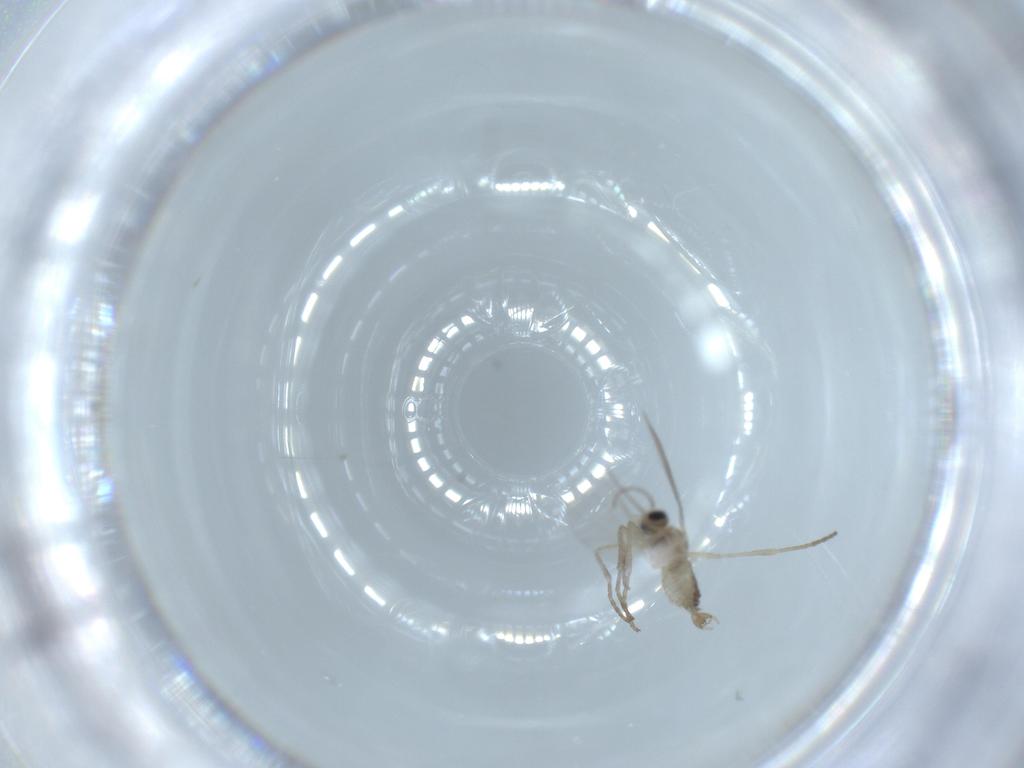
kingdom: Animalia
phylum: Arthropoda
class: Insecta
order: Diptera
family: Cecidomyiidae
